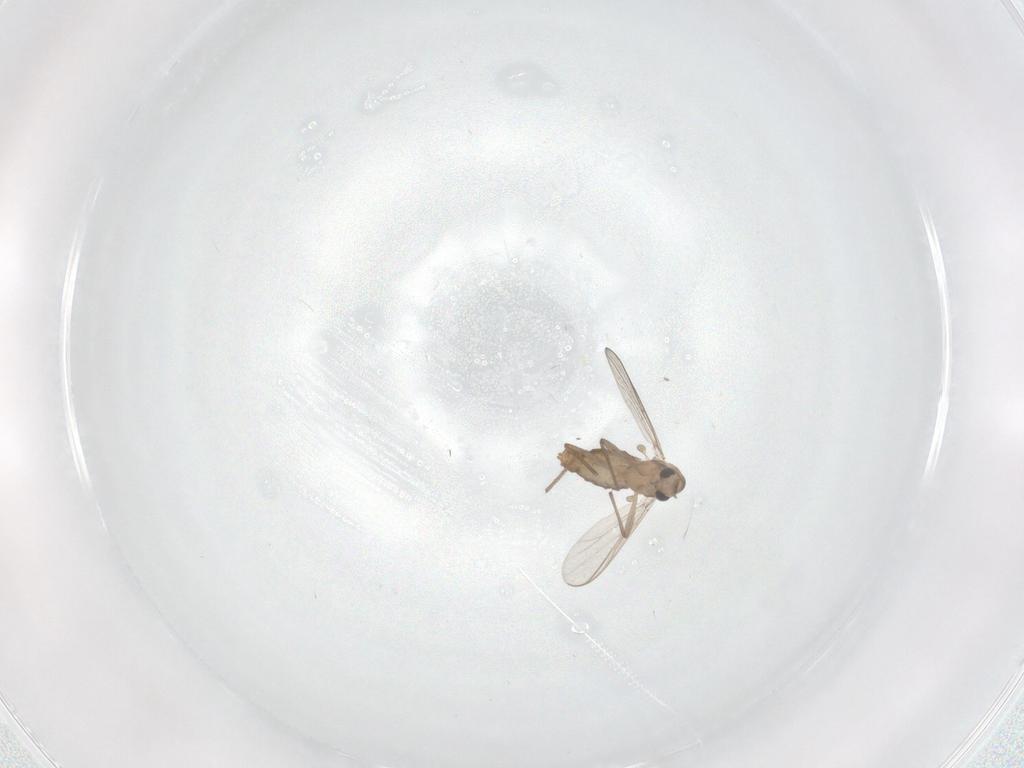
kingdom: Animalia
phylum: Arthropoda
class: Insecta
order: Diptera
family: Chironomidae
